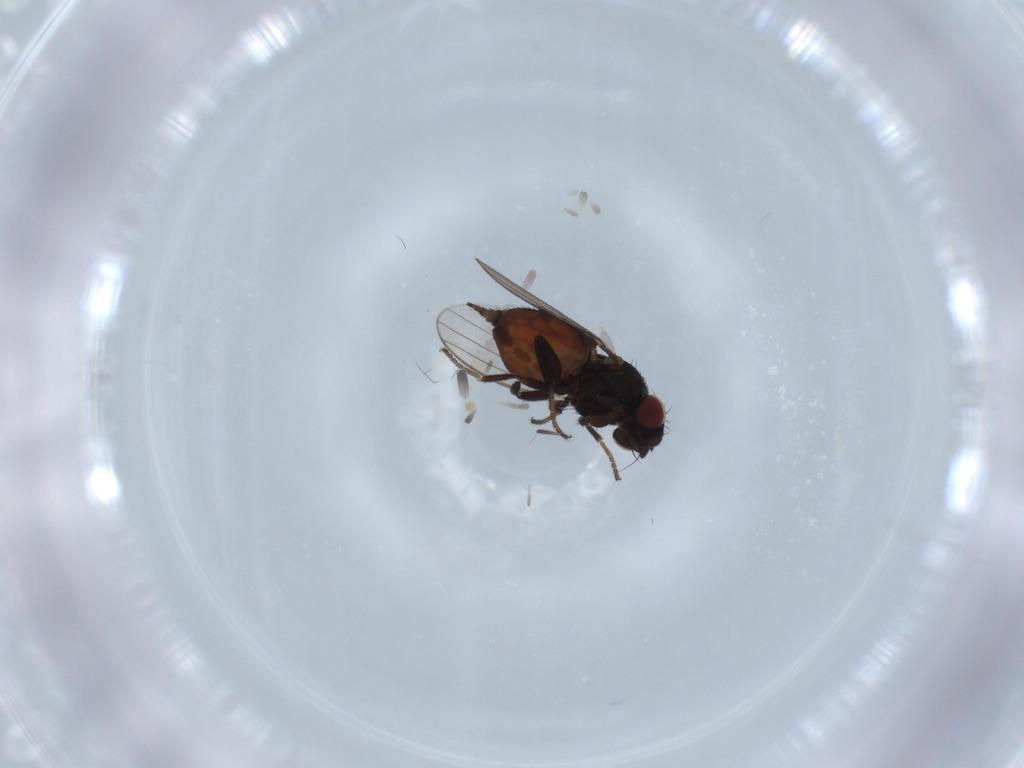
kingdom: Animalia
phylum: Arthropoda
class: Insecta
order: Diptera
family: Milichiidae
